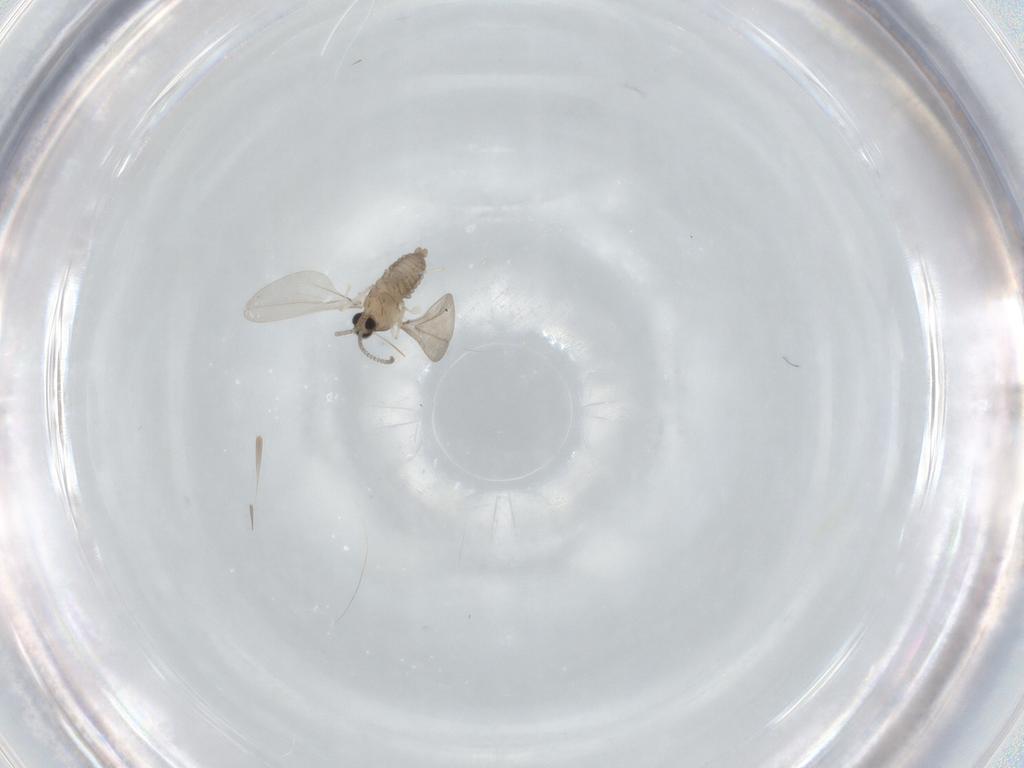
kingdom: Animalia
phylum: Arthropoda
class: Insecta
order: Diptera
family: Cecidomyiidae
